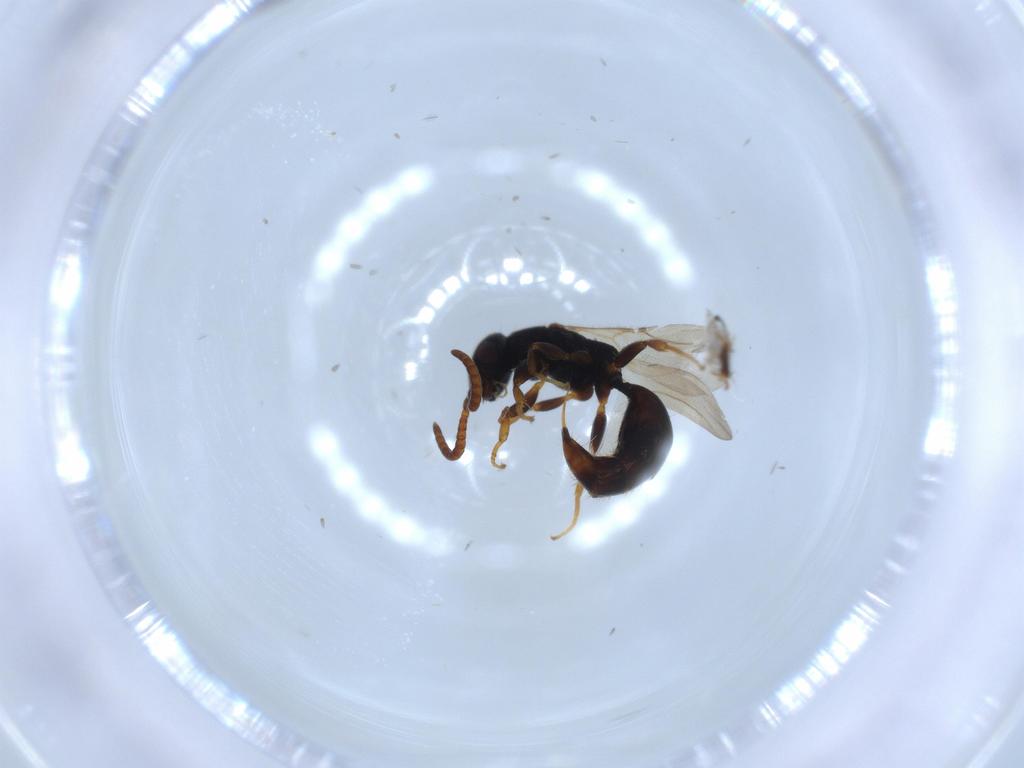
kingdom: Animalia
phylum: Arthropoda
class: Insecta
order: Hymenoptera
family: Bethylidae
